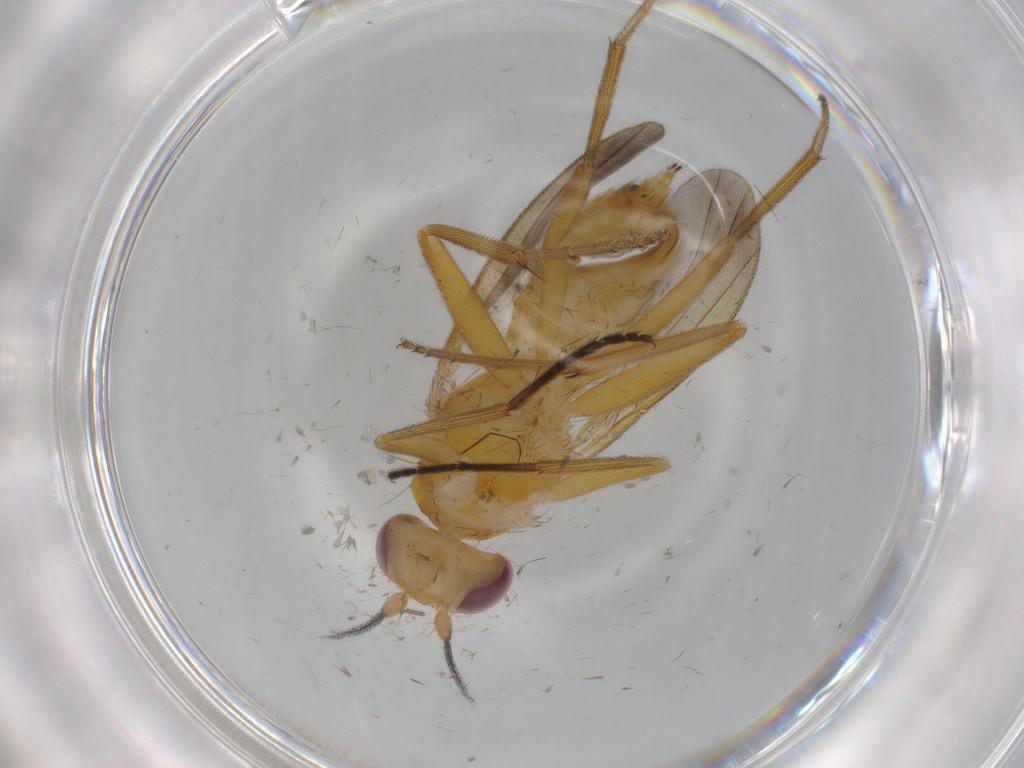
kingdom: Animalia
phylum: Arthropoda
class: Insecta
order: Diptera
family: Clusiidae
